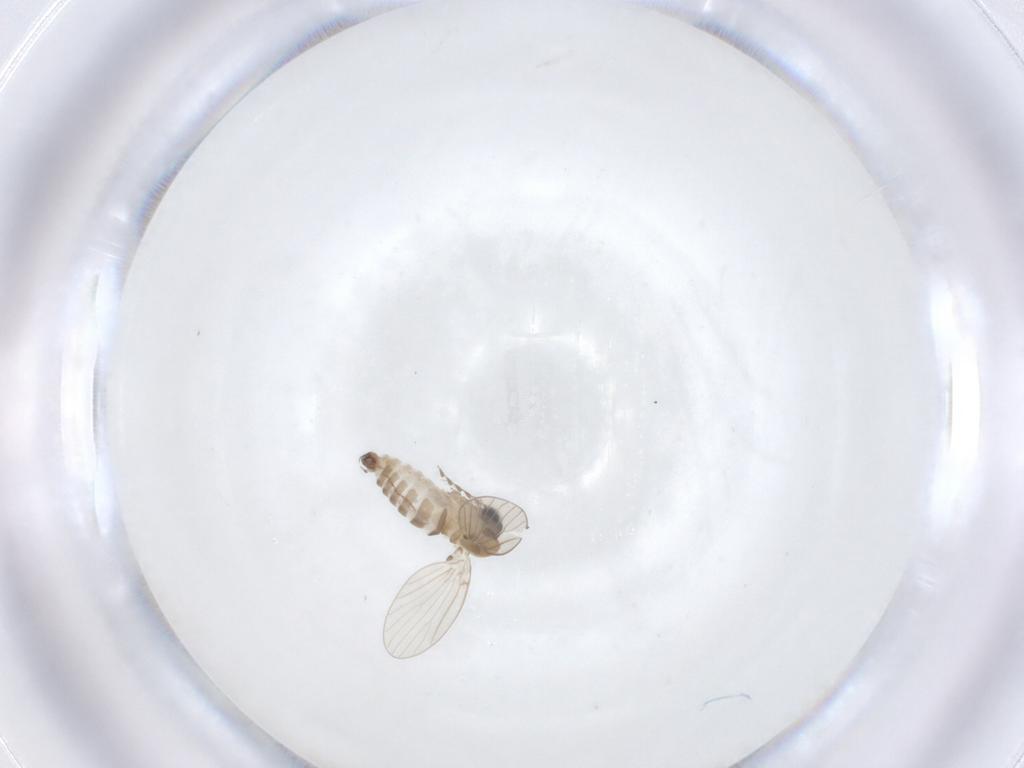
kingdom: Animalia
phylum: Arthropoda
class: Insecta
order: Diptera
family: Psychodidae
